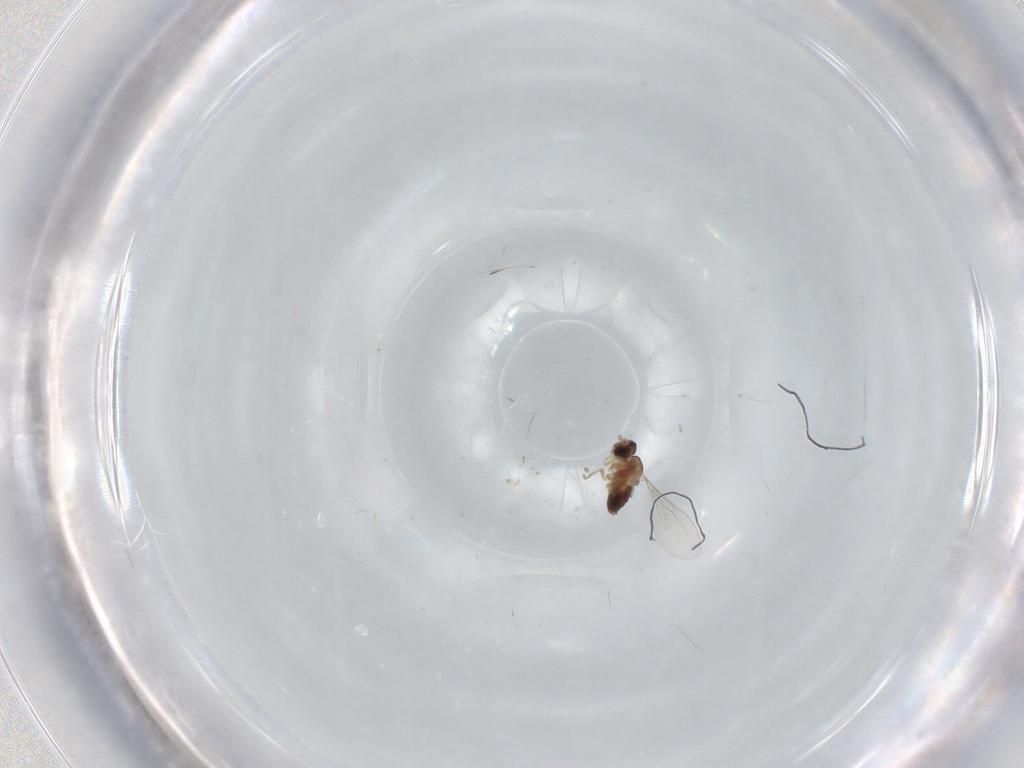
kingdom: Animalia
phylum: Arthropoda
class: Insecta
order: Diptera
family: Cecidomyiidae
